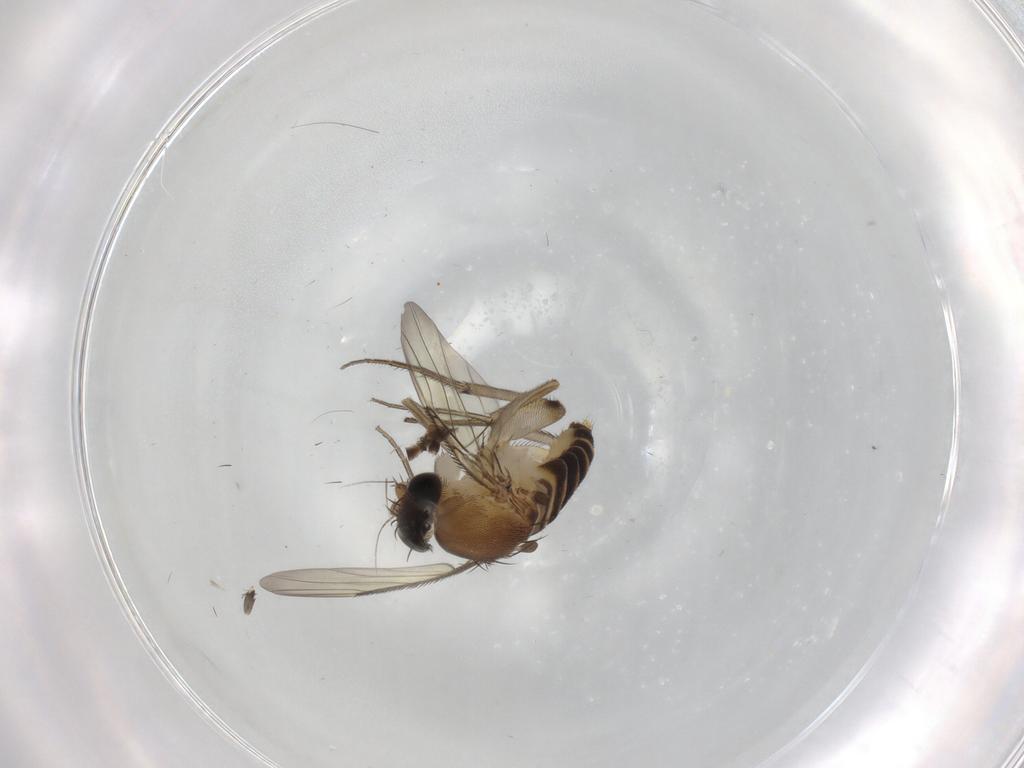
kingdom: Animalia
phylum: Arthropoda
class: Insecta
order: Diptera
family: Phoridae
